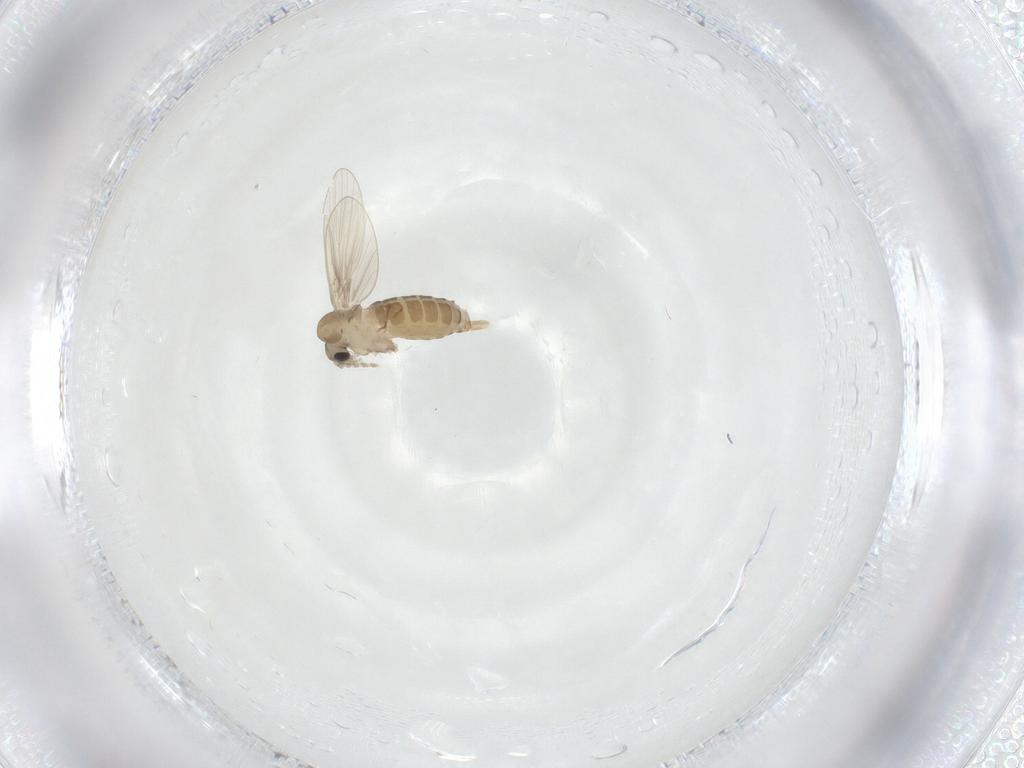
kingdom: Animalia
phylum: Arthropoda
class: Insecta
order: Diptera
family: Psychodidae
